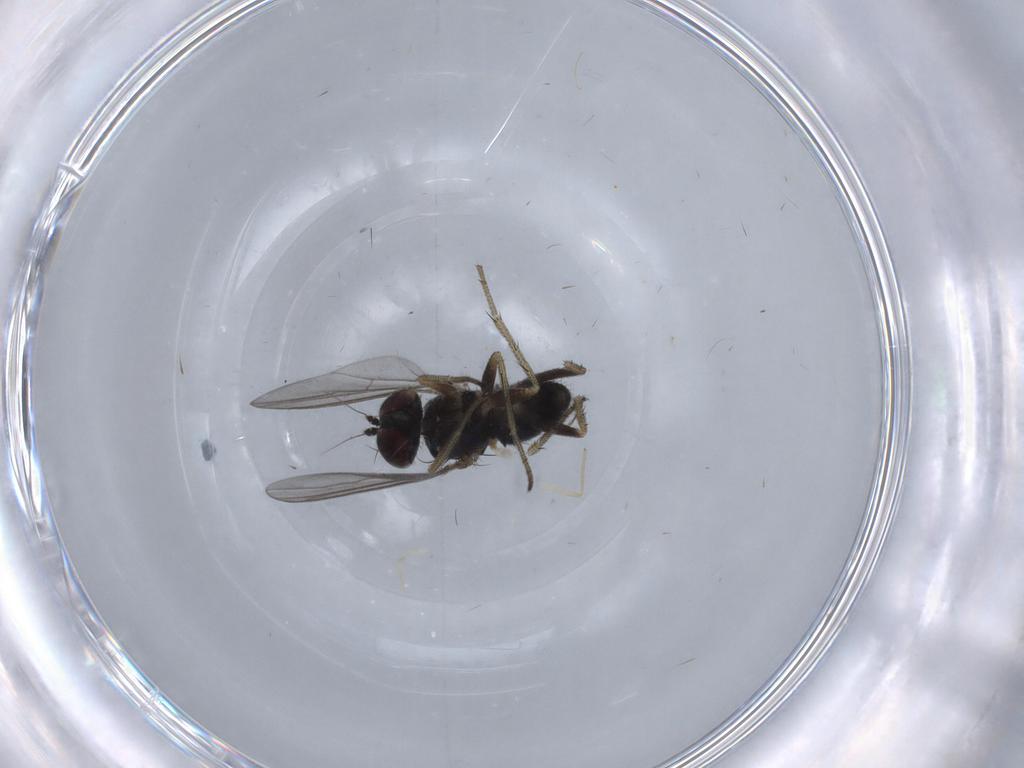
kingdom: Animalia
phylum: Arthropoda
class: Insecta
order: Diptera
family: Dolichopodidae
